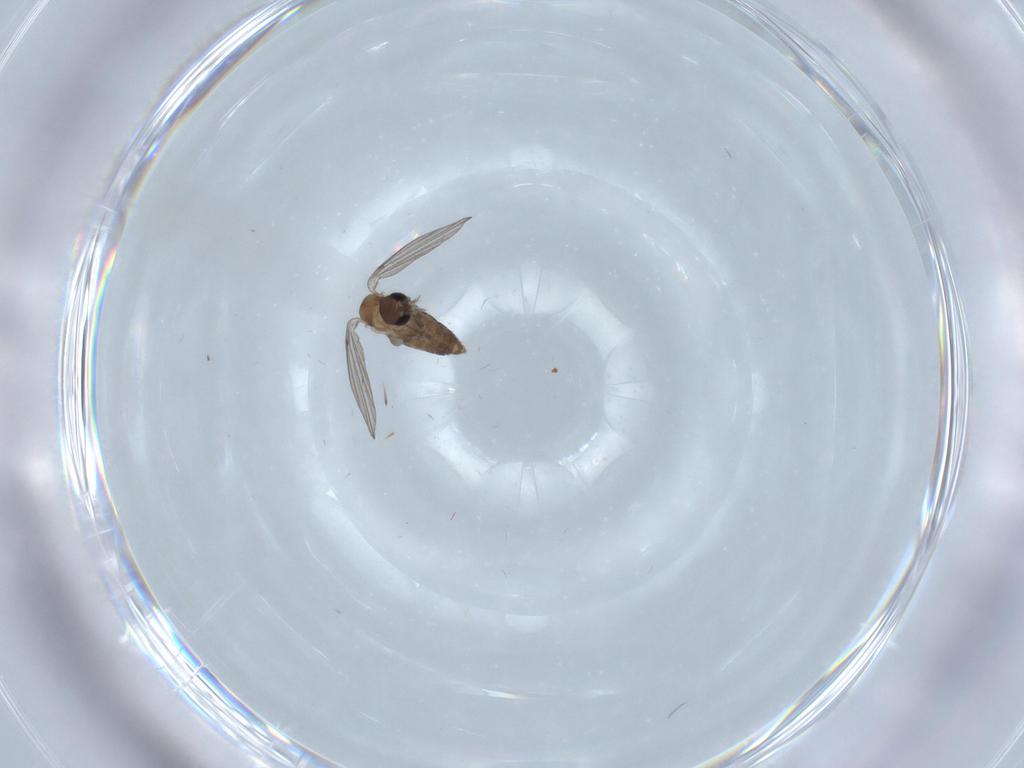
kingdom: Animalia
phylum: Arthropoda
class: Insecta
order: Diptera
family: Psychodidae
